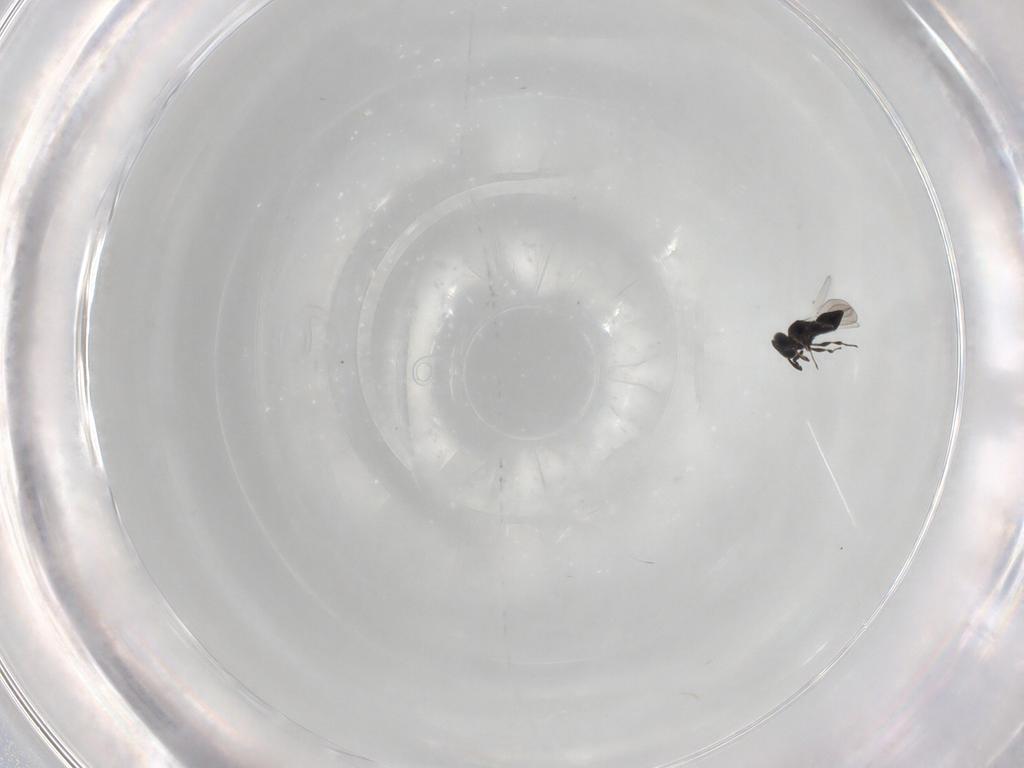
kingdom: Animalia
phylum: Arthropoda
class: Insecta
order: Hymenoptera
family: Platygastridae
